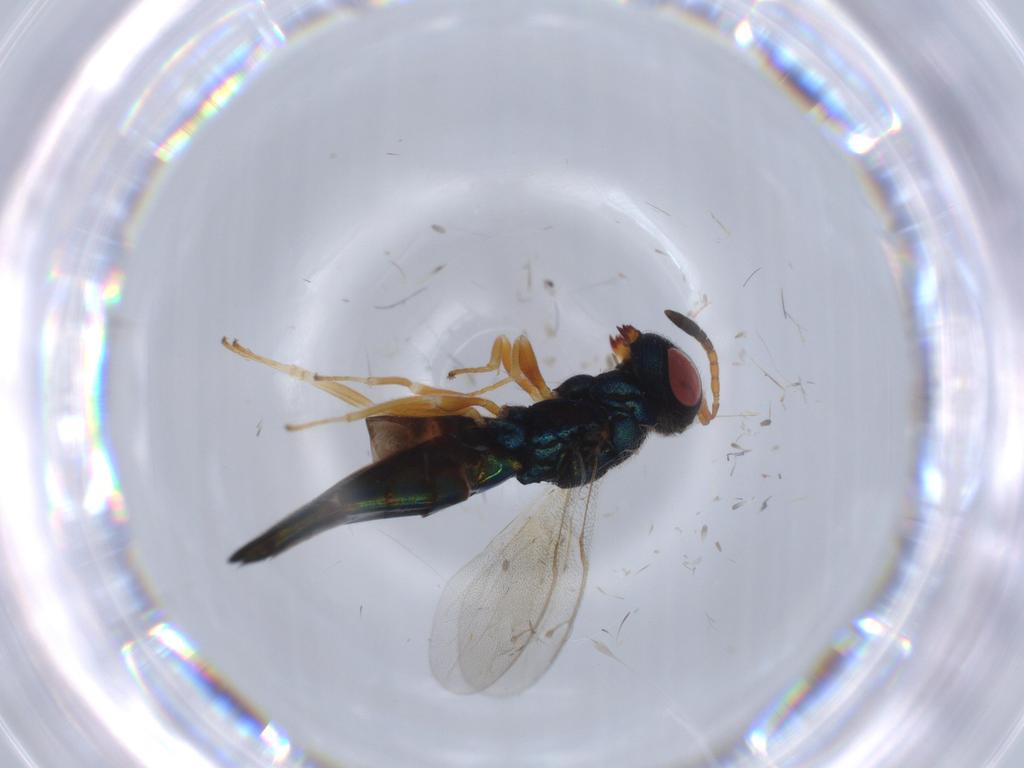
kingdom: Animalia
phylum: Arthropoda
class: Insecta
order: Hymenoptera
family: Pteromalidae
